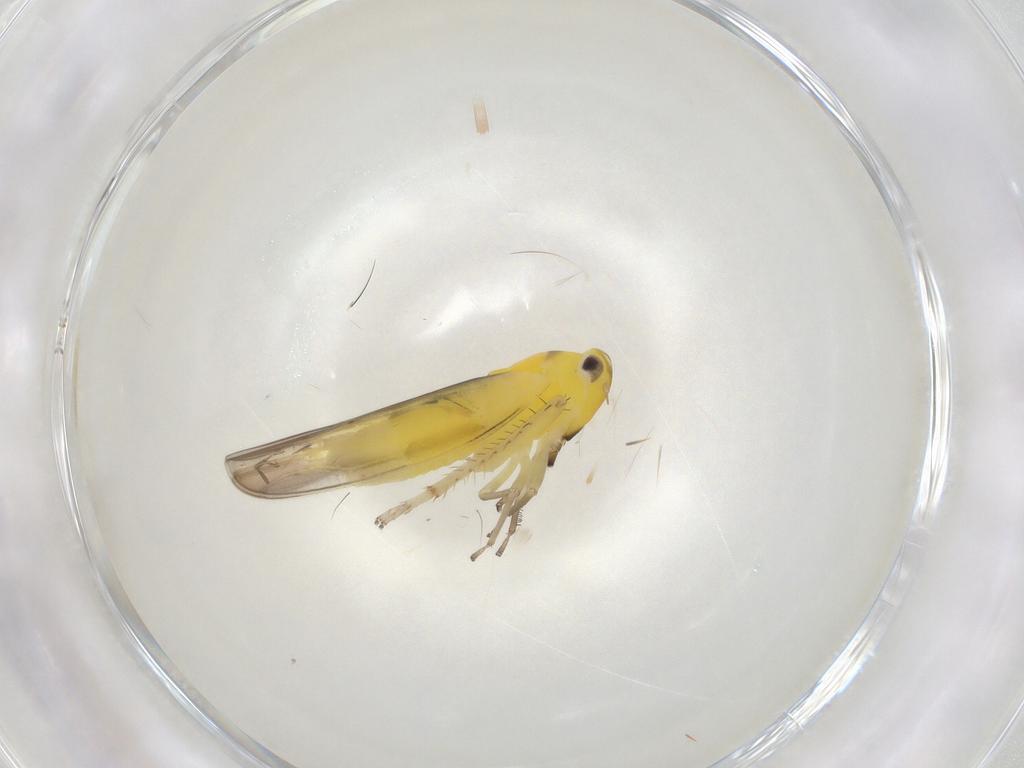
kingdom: Animalia
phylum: Arthropoda
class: Insecta
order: Hemiptera
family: Cicadellidae
